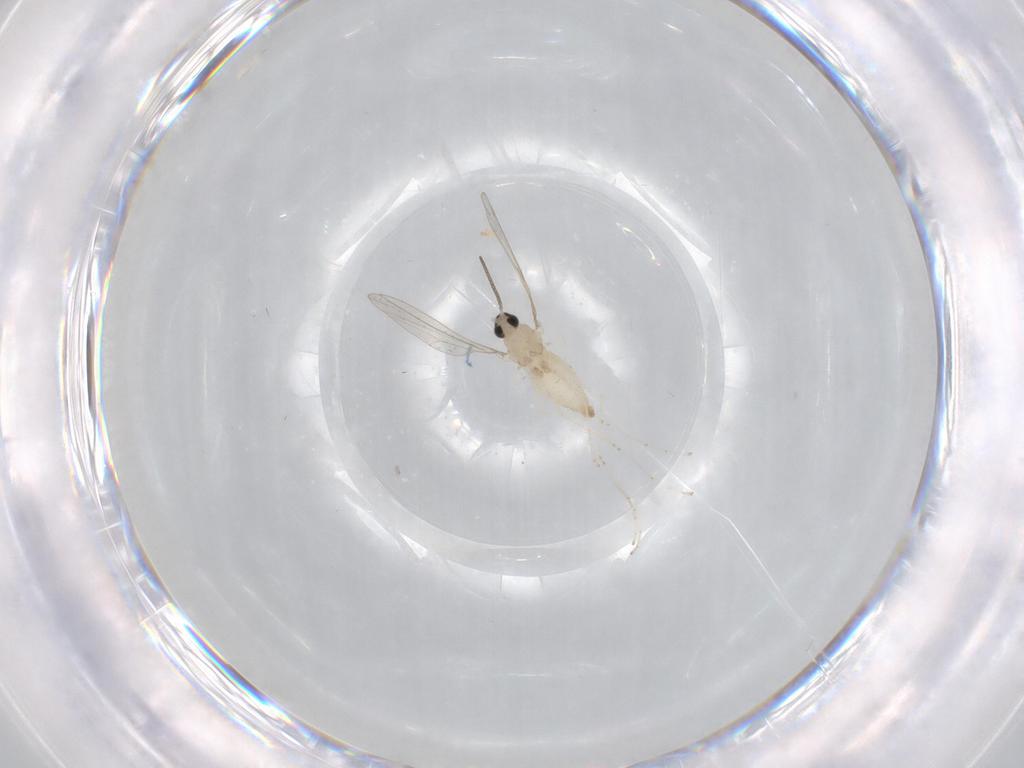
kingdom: Animalia
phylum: Arthropoda
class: Insecta
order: Diptera
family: Cecidomyiidae
